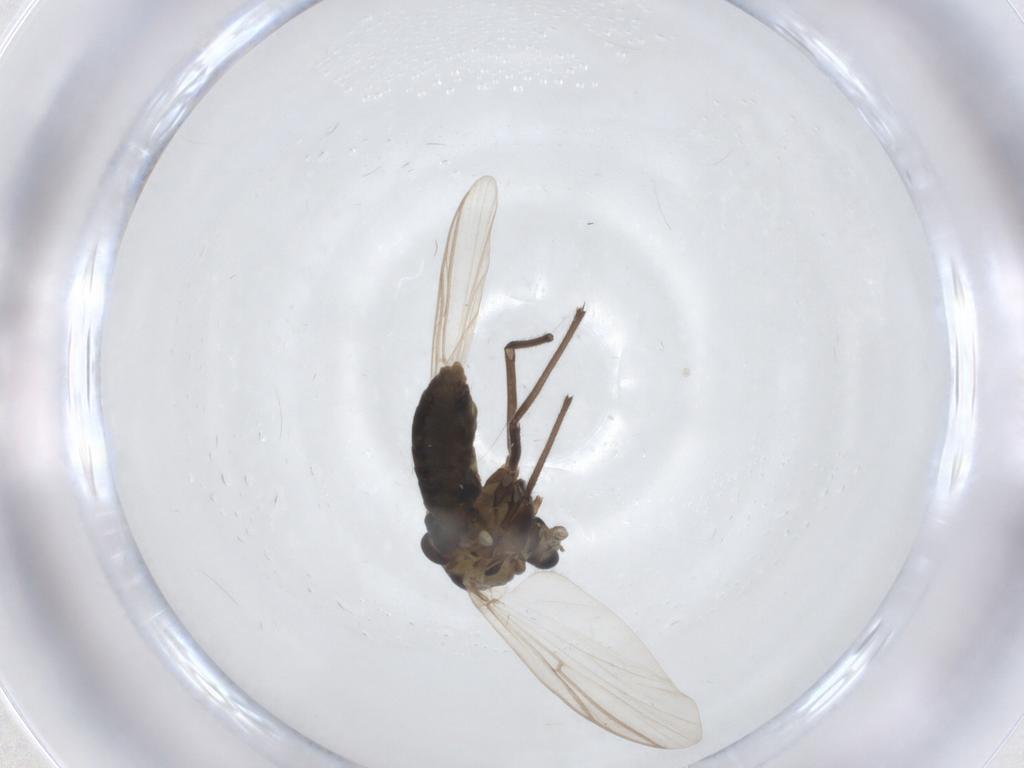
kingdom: Animalia
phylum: Arthropoda
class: Insecta
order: Diptera
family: Chironomidae
